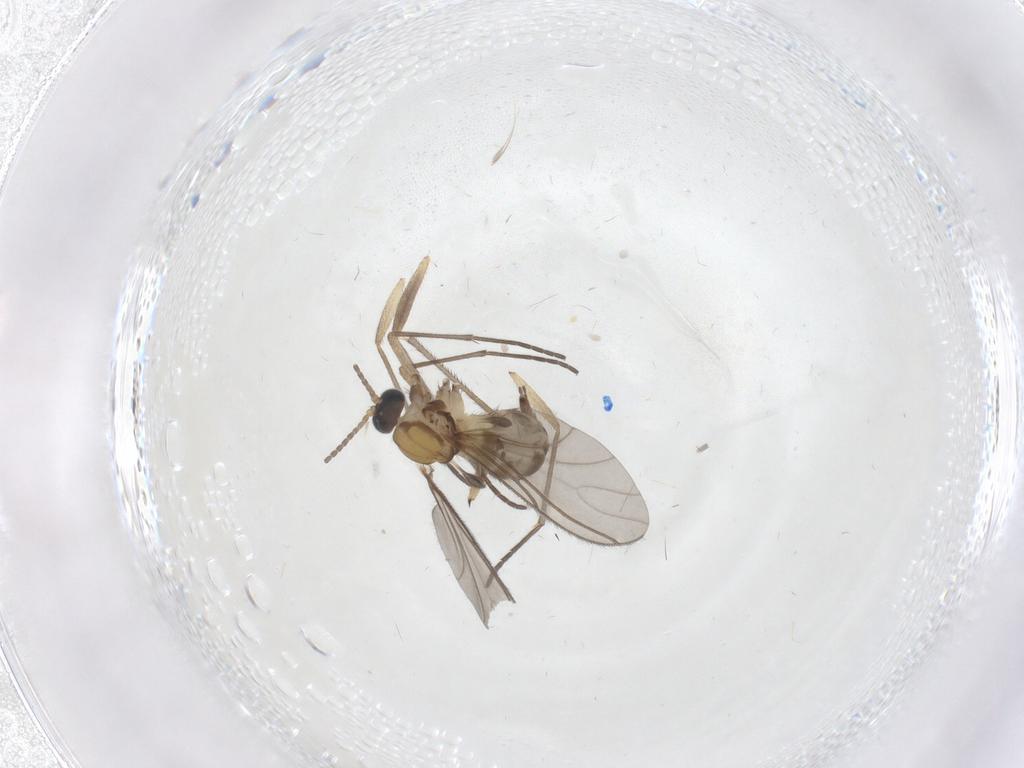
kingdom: Animalia
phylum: Arthropoda
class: Insecta
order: Diptera
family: Sciaridae
